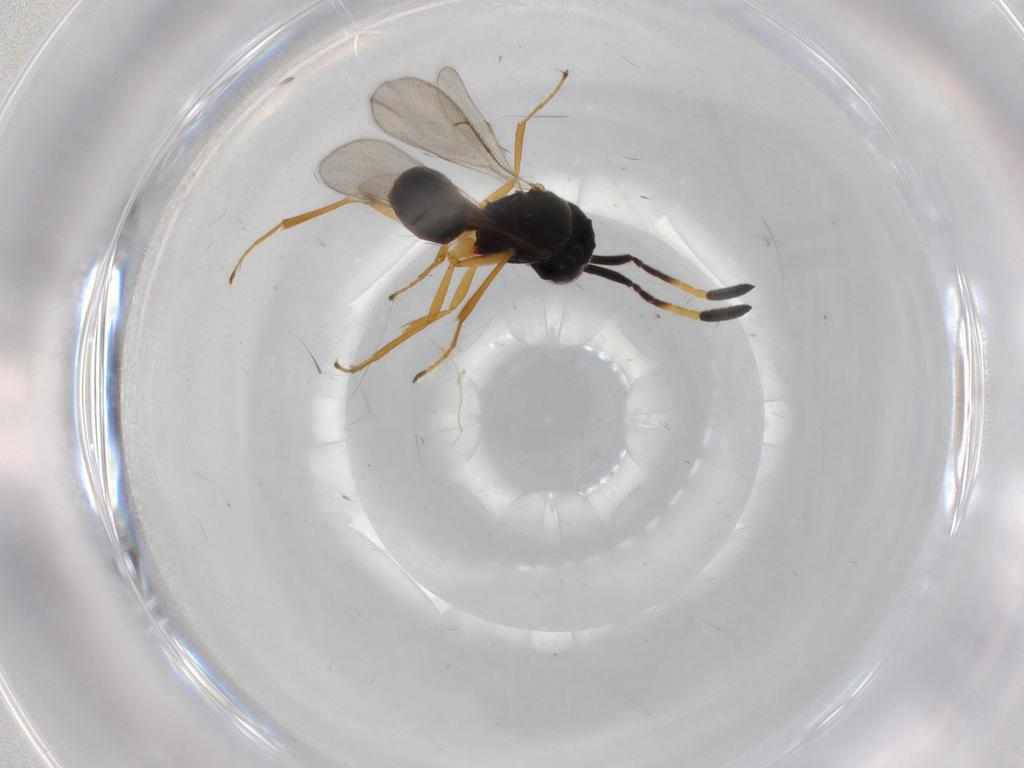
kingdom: Animalia
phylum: Arthropoda
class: Insecta
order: Hymenoptera
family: Scelionidae
